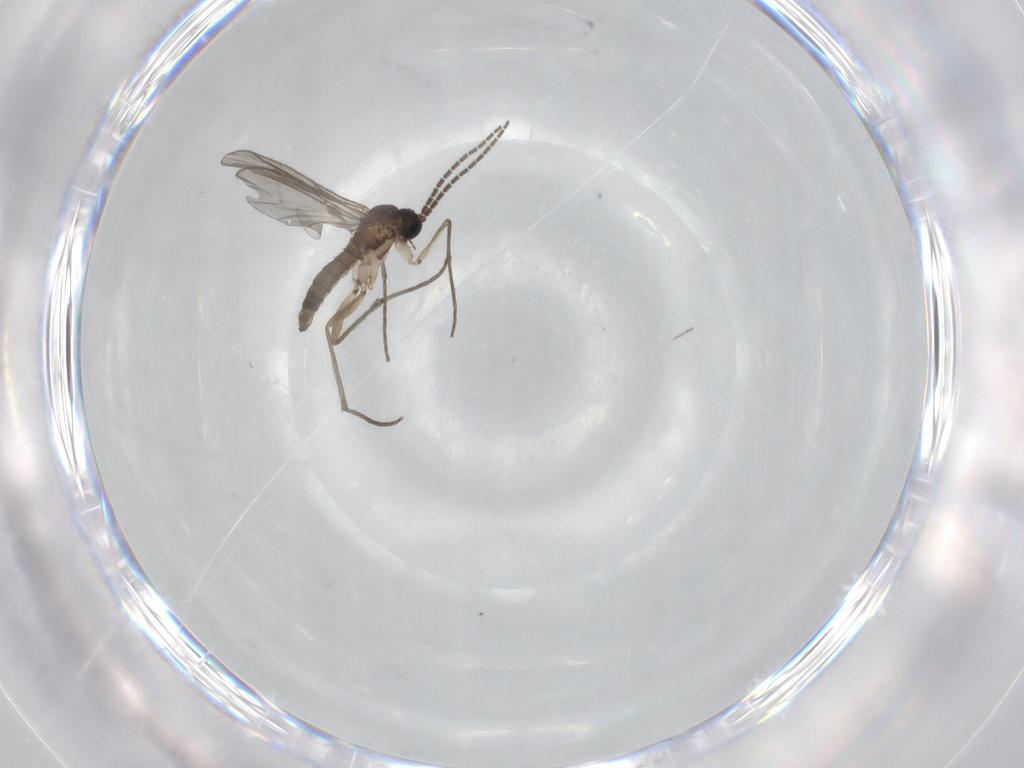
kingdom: Animalia
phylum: Arthropoda
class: Insecta
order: Diptera
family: Sciaridae
